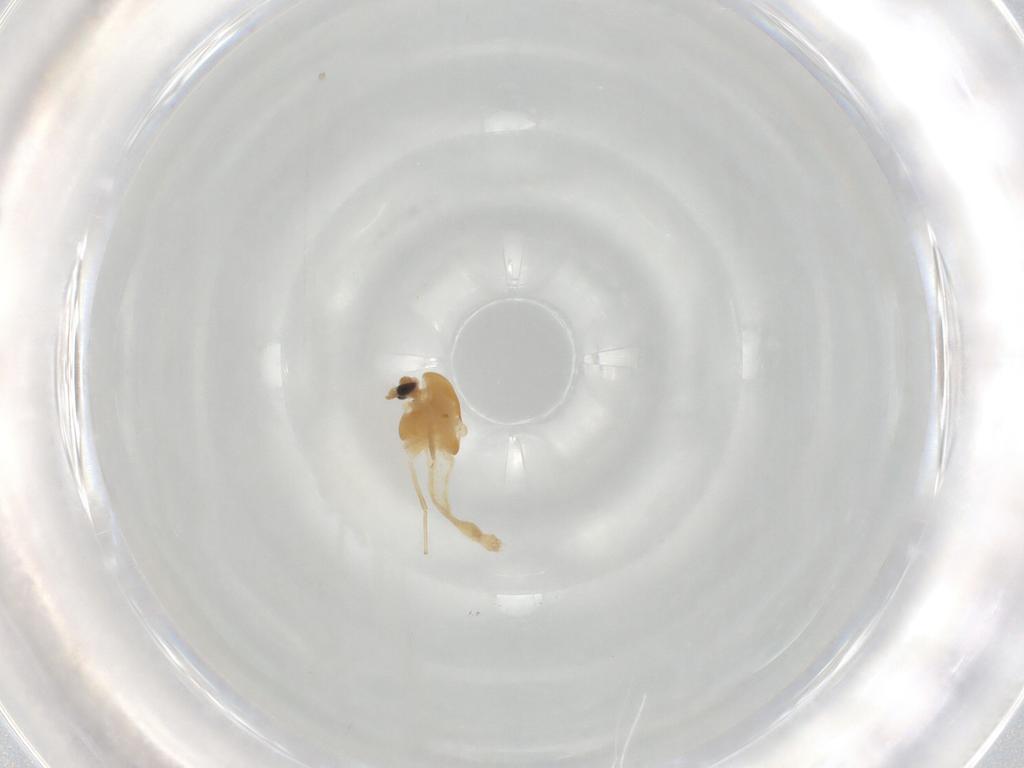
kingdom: Animalia
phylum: Arthropoda
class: Insecta
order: Diptera
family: Chironomidae
